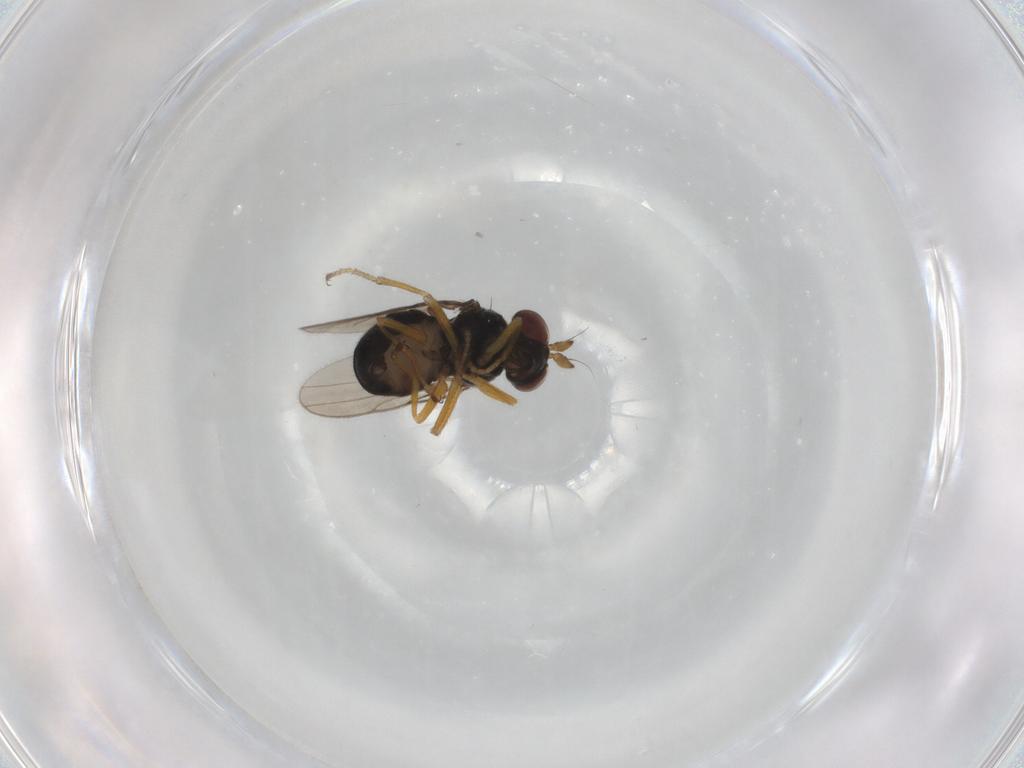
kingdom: Animalia
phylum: Arthropoda
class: Insecta
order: Diptera
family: Ephydridae
